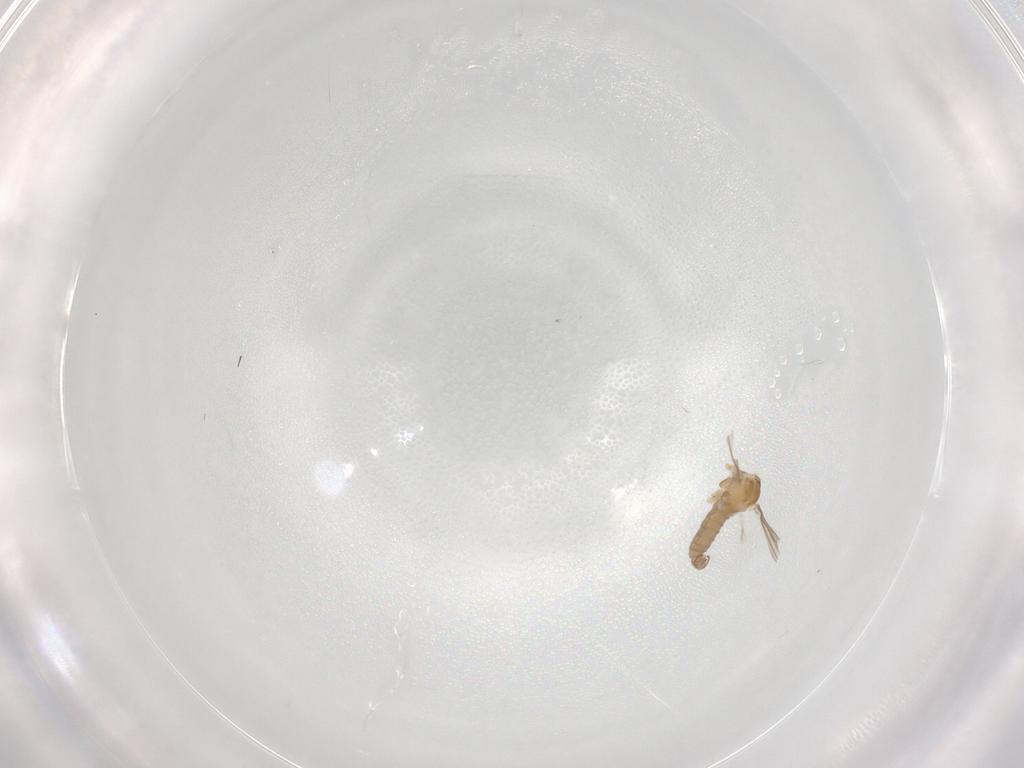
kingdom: Animalia
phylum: Arthropoda
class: Insecta
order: Diptera
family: Cecidomyiidae
